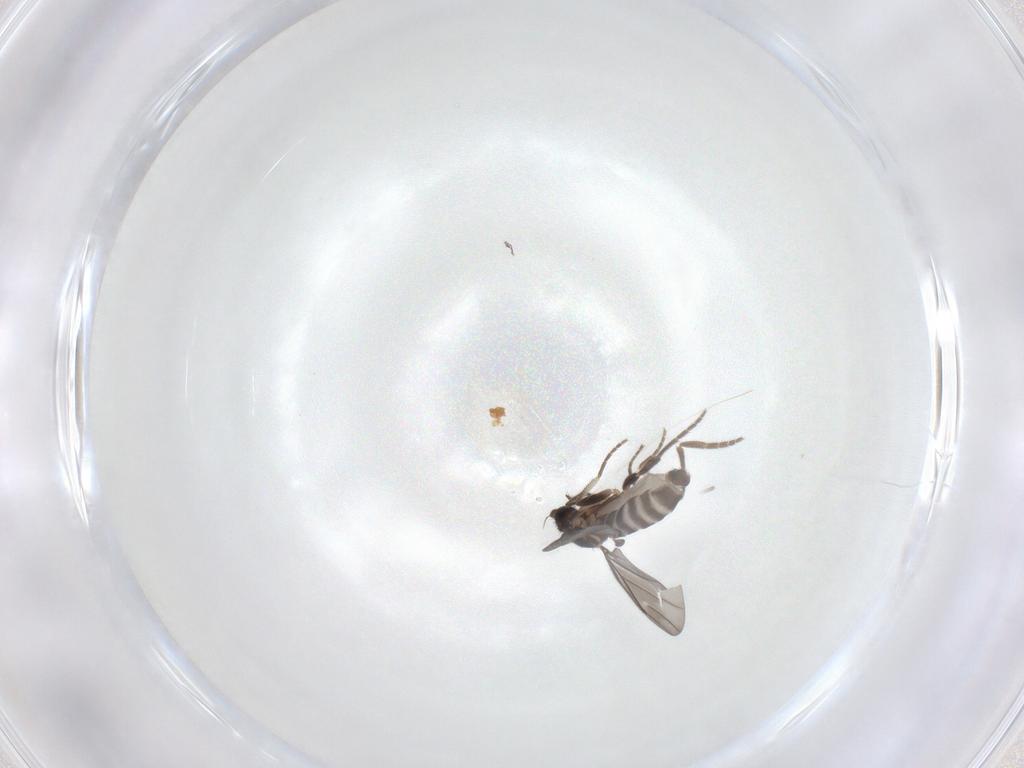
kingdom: Animalia
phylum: Arthropoda
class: Insecta
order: Diptera
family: Phoridae
